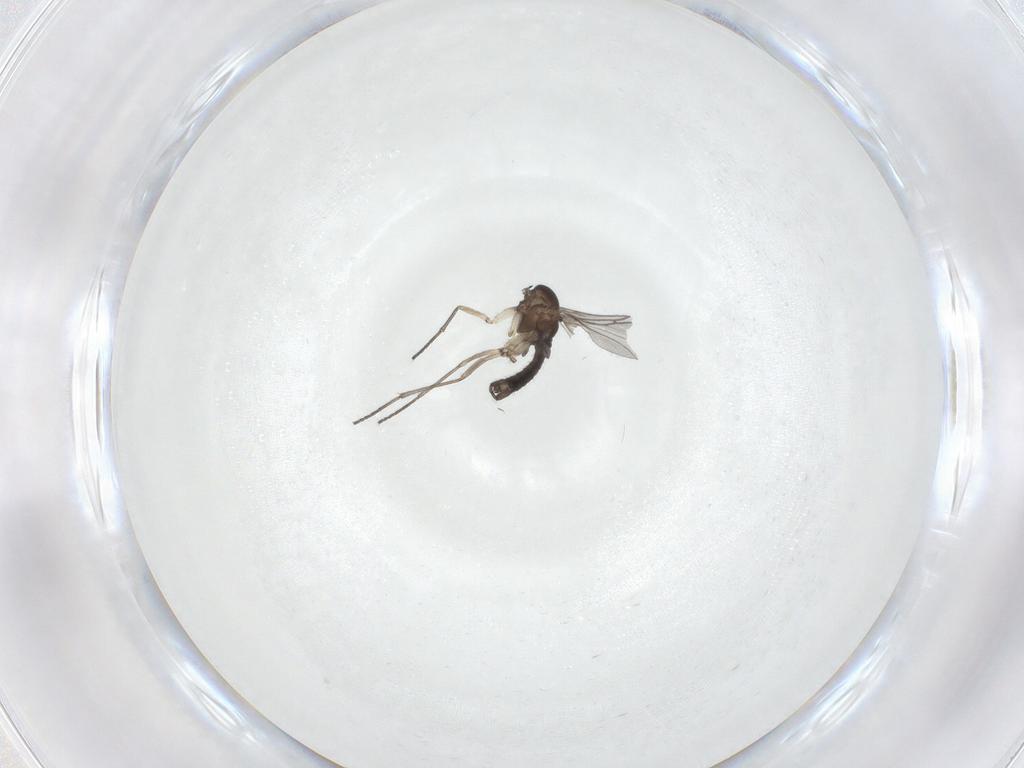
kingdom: Animalia
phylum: Arthropoda
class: Insecta
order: Diptera
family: Sciaridae
